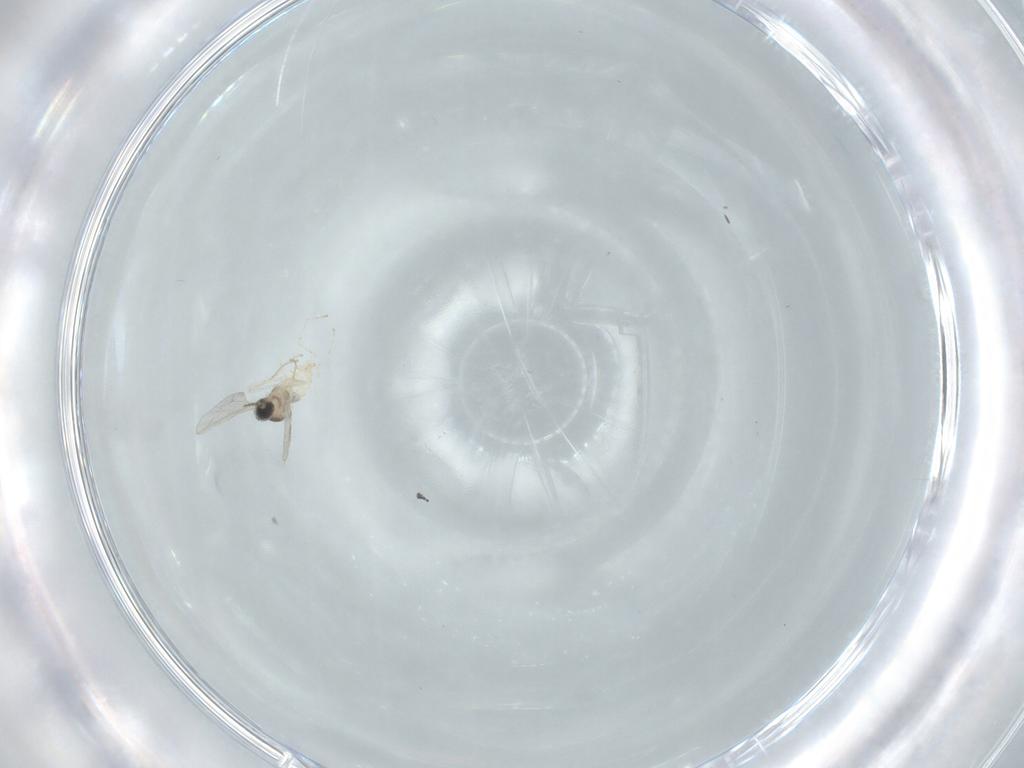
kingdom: Animalia
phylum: Arthropoda
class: Insecta
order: Diptera
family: Cecidomyiidae
